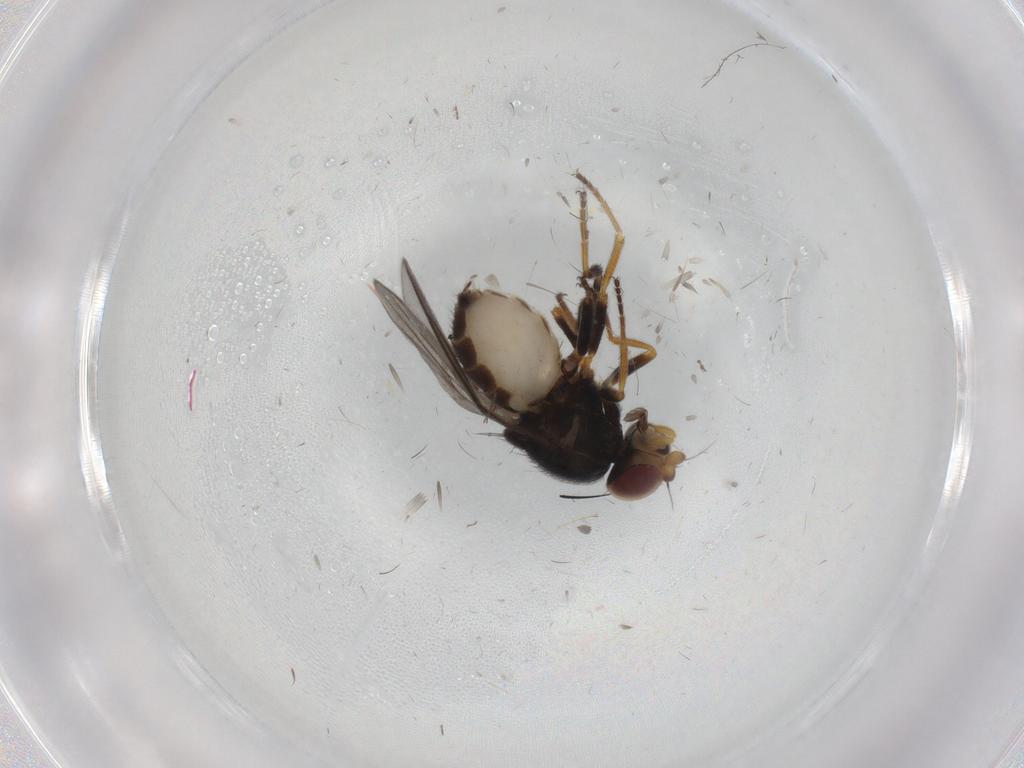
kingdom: Animalia
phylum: Arthropoda
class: Insecta
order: Diptera
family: Chloropidae
